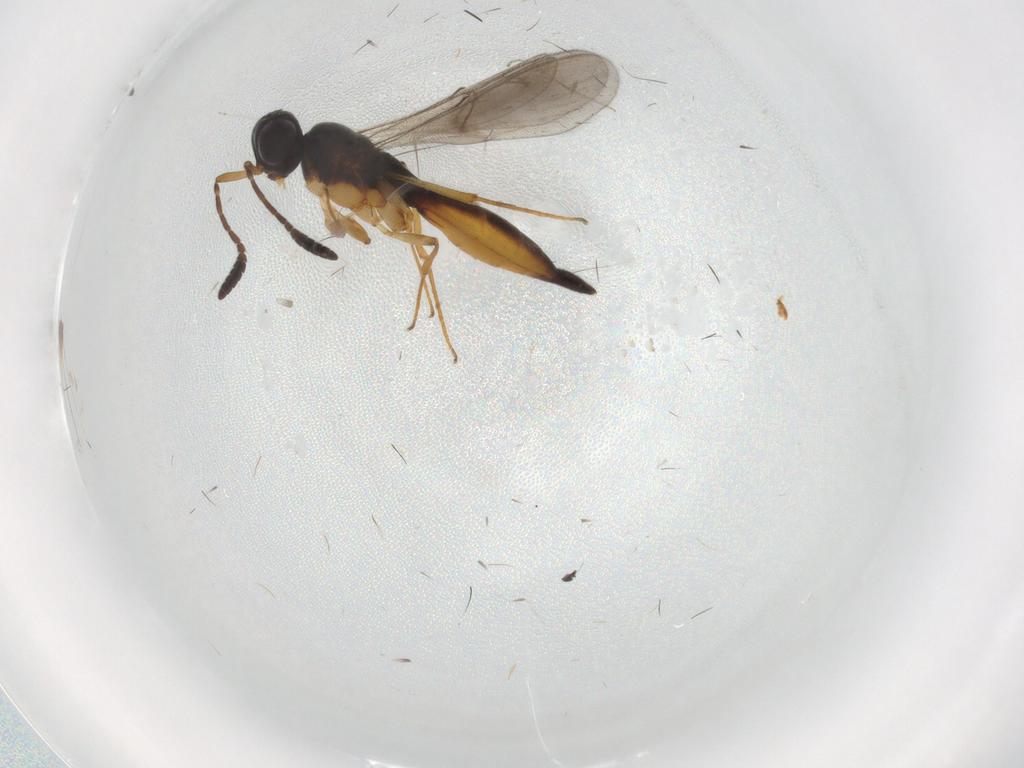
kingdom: Animalia
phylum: Arthropoda
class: Insecta
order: Hymenoptera
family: Scelionidae
